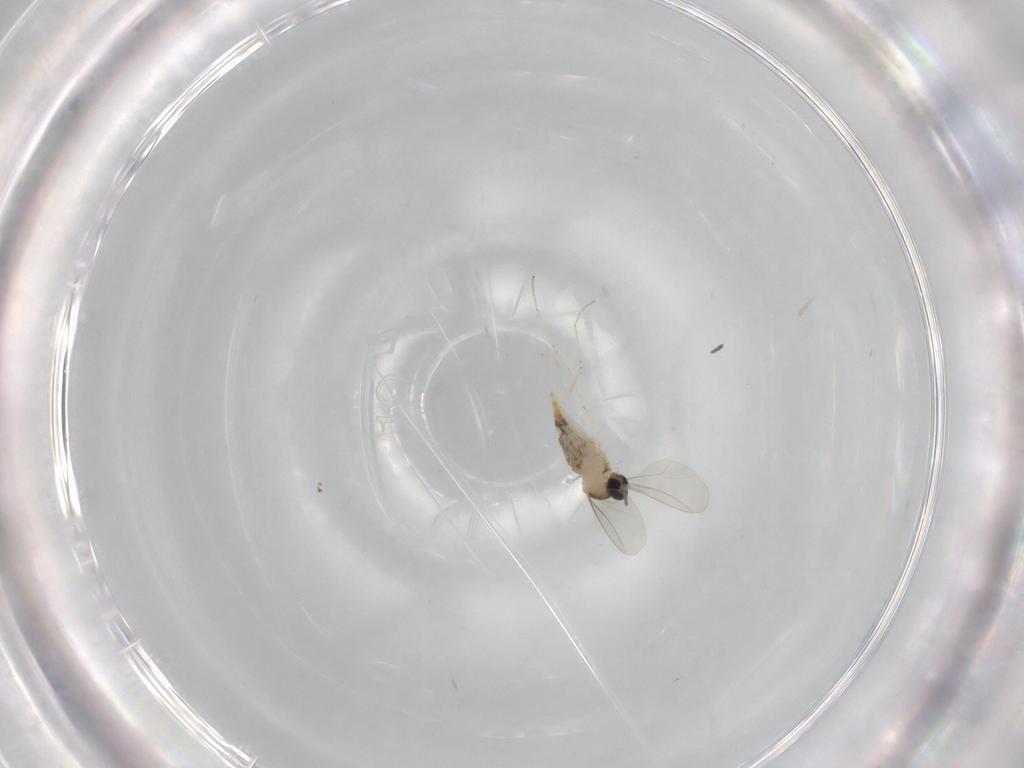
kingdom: Animalia
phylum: Arthropoda
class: Insecta
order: Diptera
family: Cecidomyiidae
